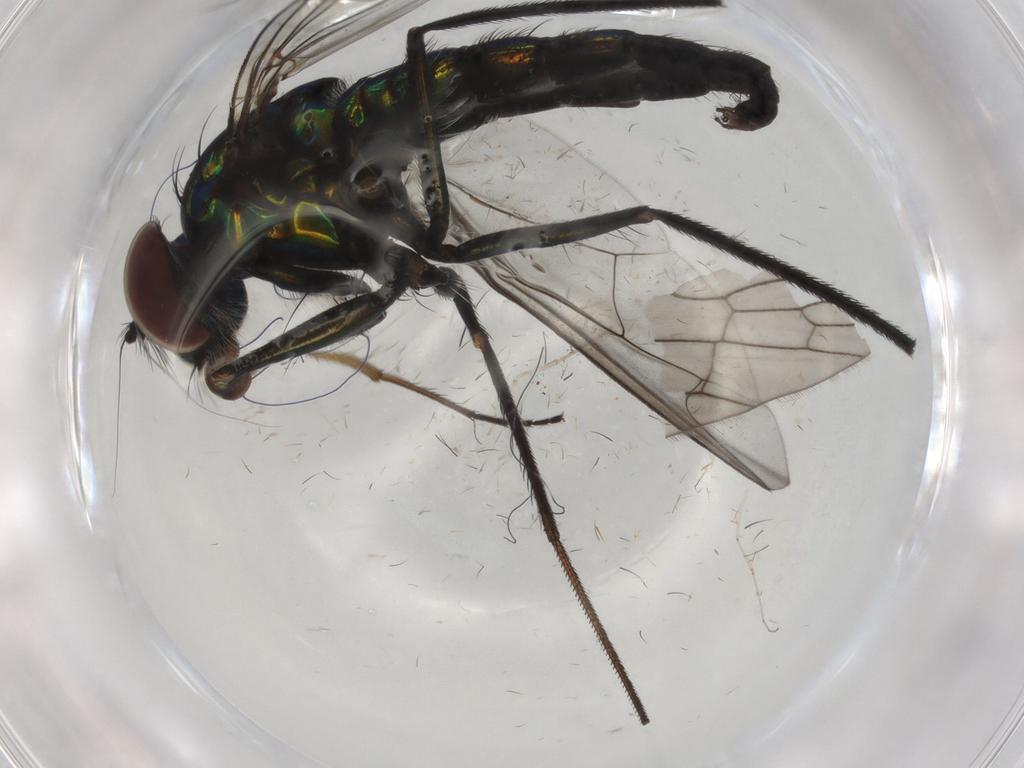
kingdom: Animalia
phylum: Arthropoda
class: Insecta
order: Diptera
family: Dolichopodidae
